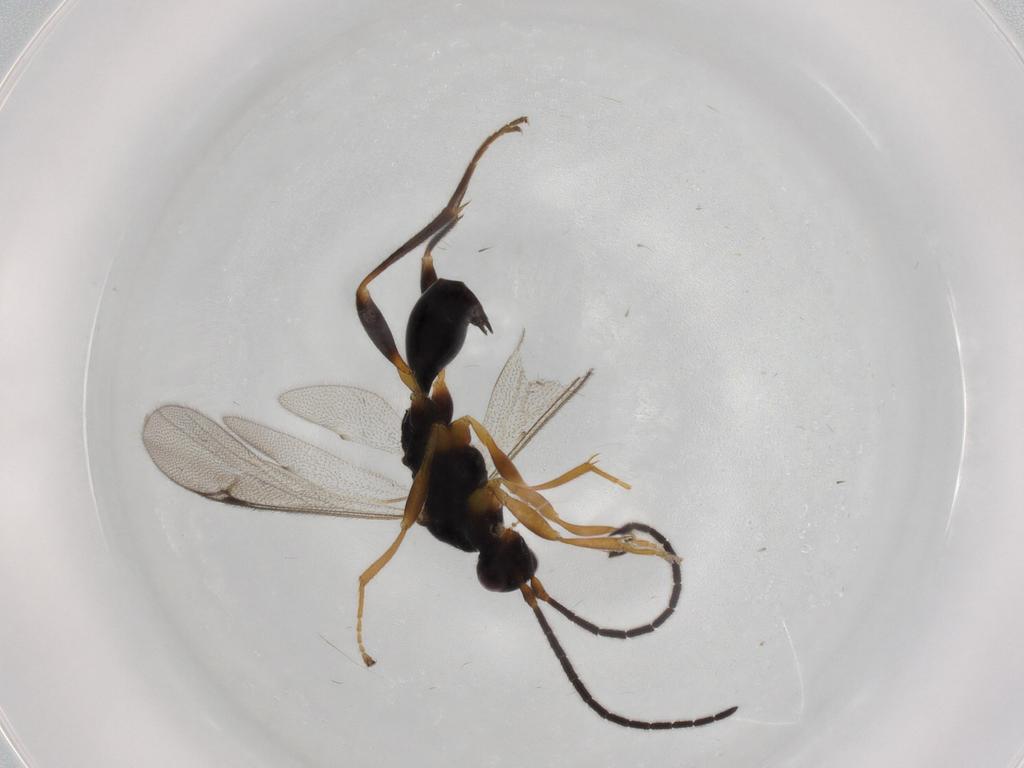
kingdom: Animalia
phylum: Arthropoda
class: Insecta
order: Hymenoptera
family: Proctotrupidae
